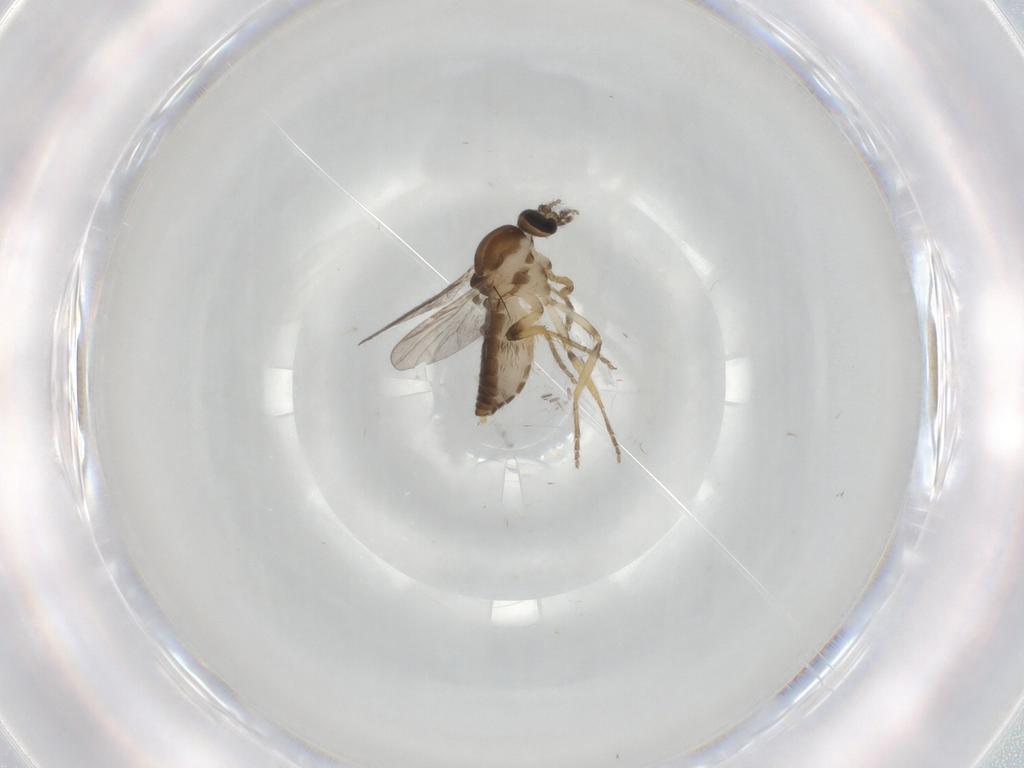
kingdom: Animalia
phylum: Arthropoda
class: Insecta
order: Diptera
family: Ceratopogonidae
